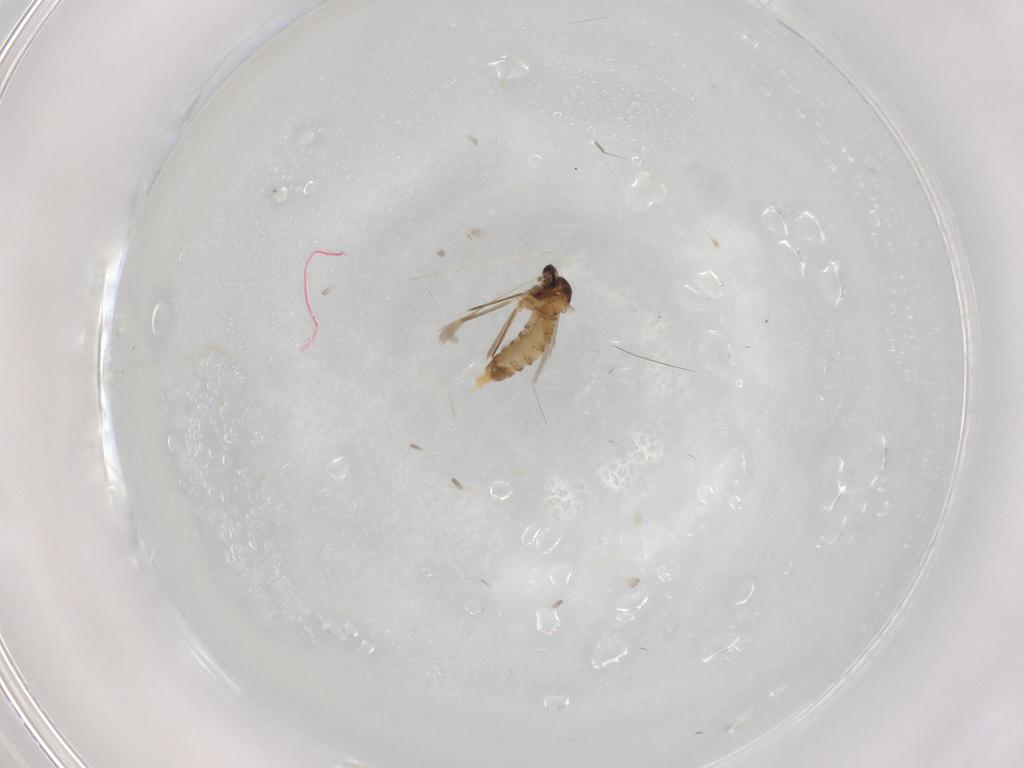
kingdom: Animalia
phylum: Arthropoda
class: Insecta
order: Diptera
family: Cecidomyiidae
